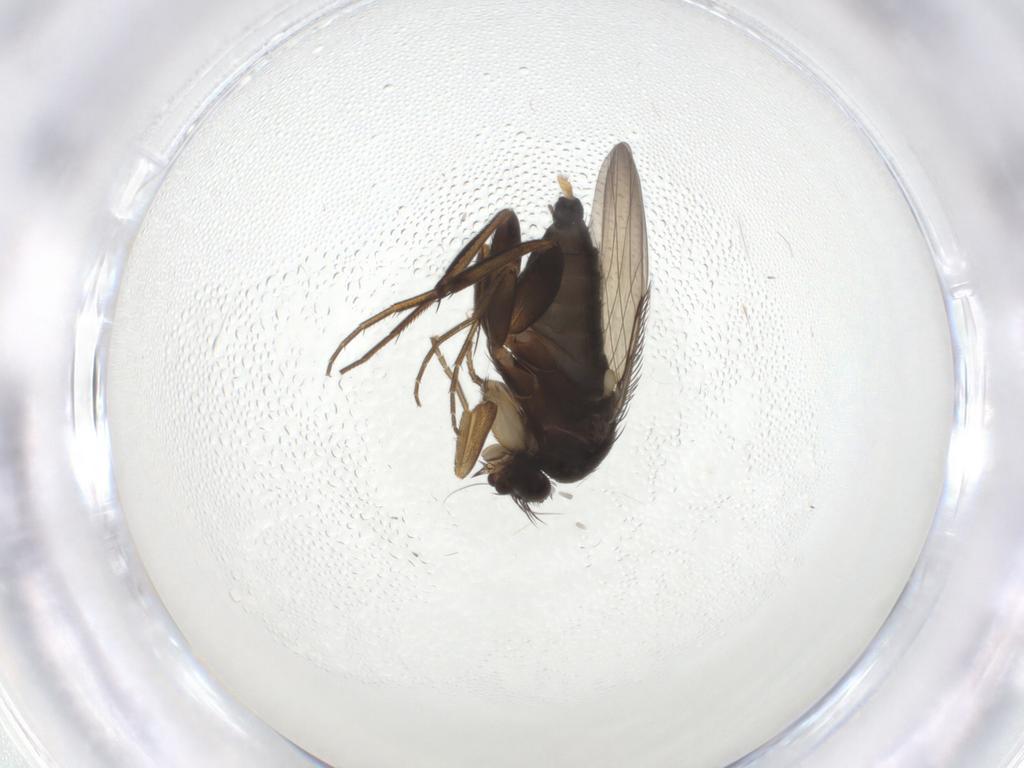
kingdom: Animalia
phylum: Arthropoda
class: Insecta
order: Diptera
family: Phoridae
